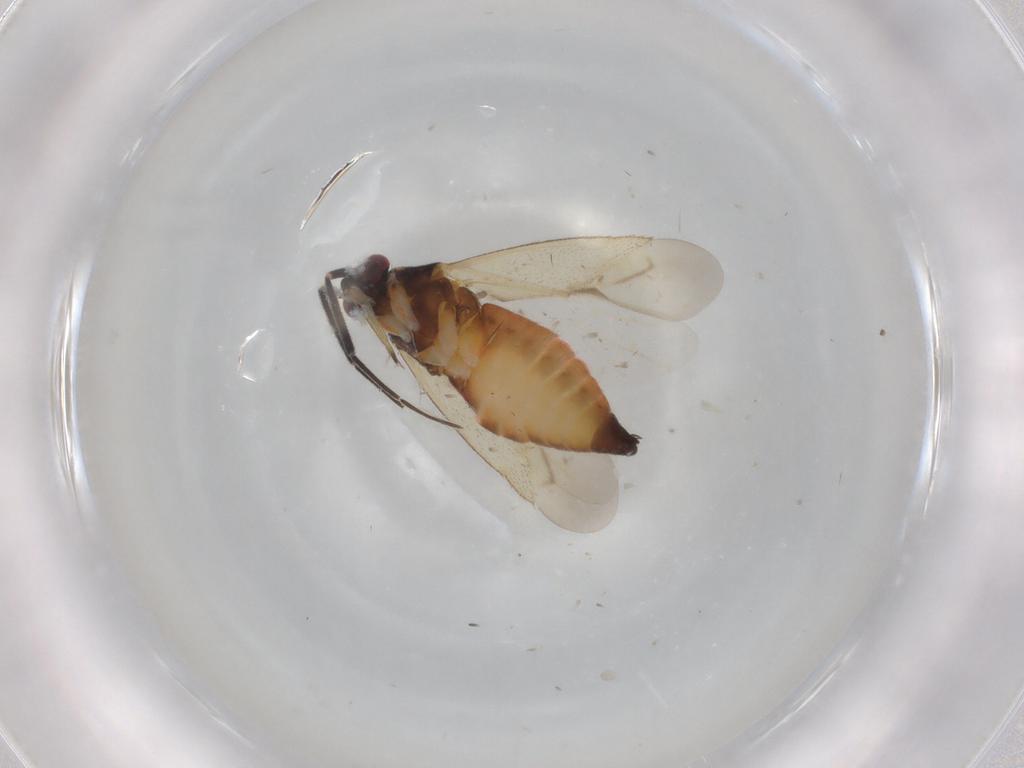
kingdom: Animalia
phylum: Arthropoda
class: Insecta
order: Hemiptera
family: Miridae
